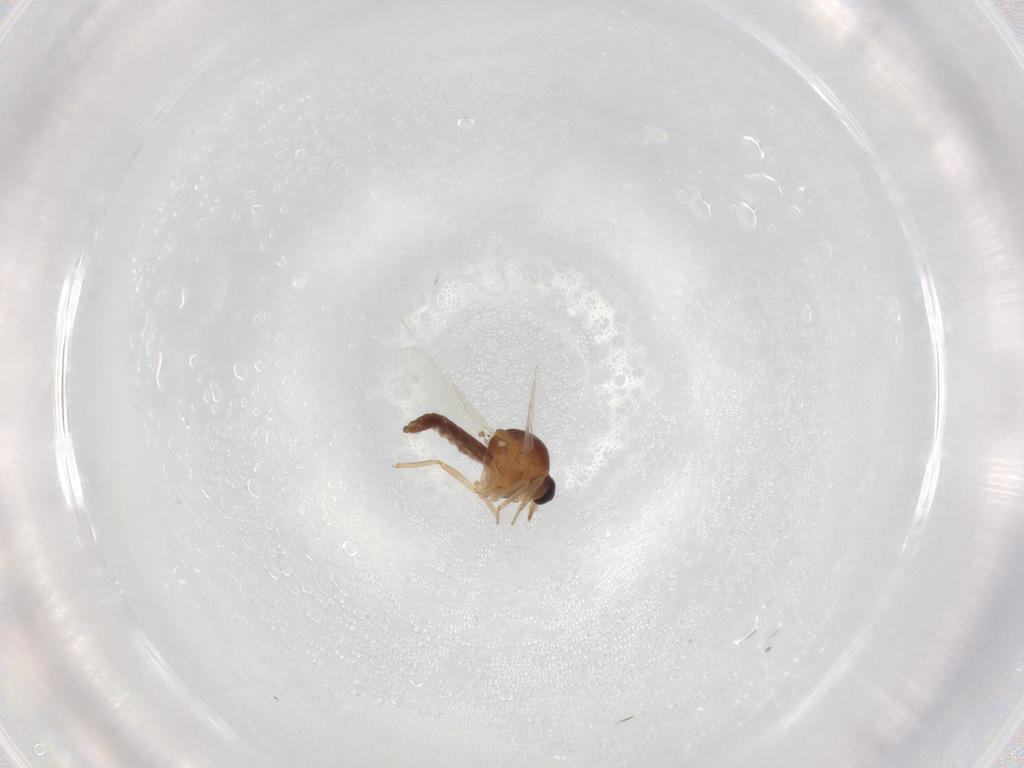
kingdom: Animalia
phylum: Arthropoda
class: Insecta
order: Diptera
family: Ceratopogonidae
